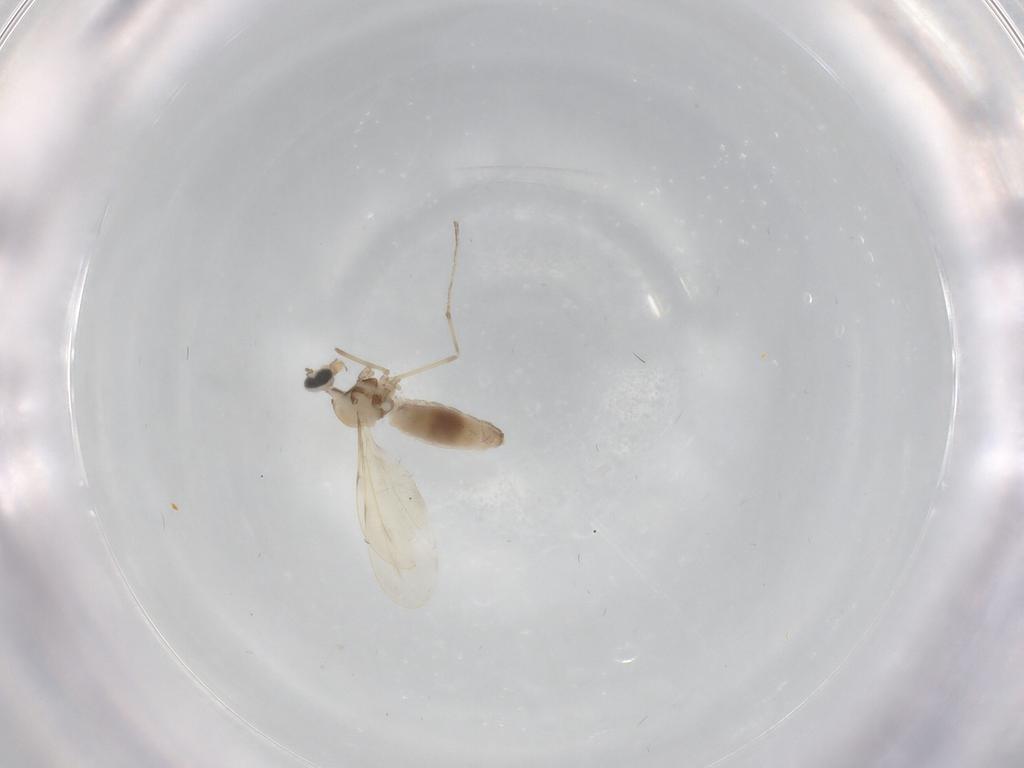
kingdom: Animalia
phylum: Arthropoda
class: Insecta
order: Diptera
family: Cecidomyiidae
